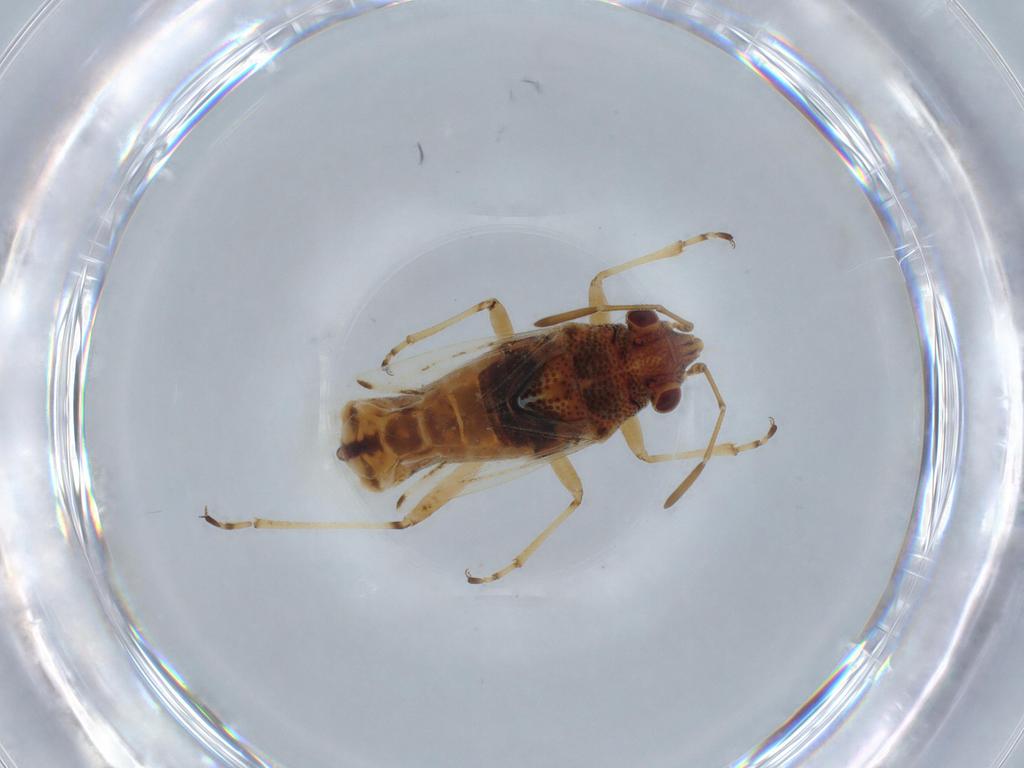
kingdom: Animalia
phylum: Arthropoda
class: Insecta
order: Hemiptera
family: Lygaeidae
